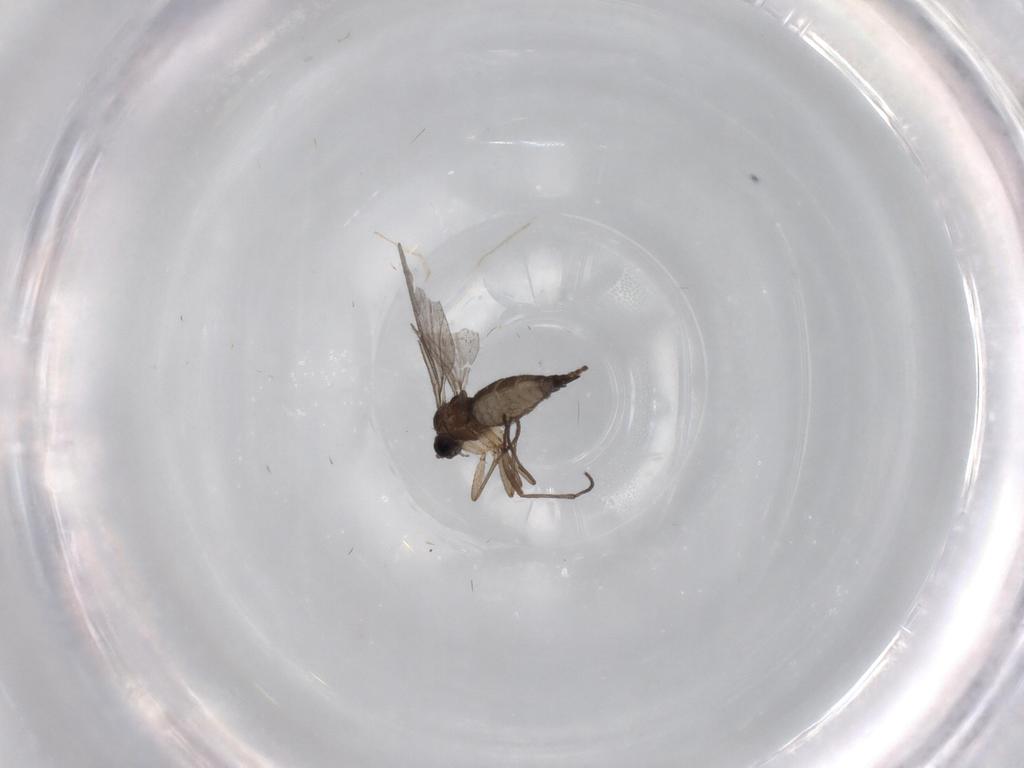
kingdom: Animalia
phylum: Arthropoda
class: Insecta
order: Diptera
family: Sciaridae
